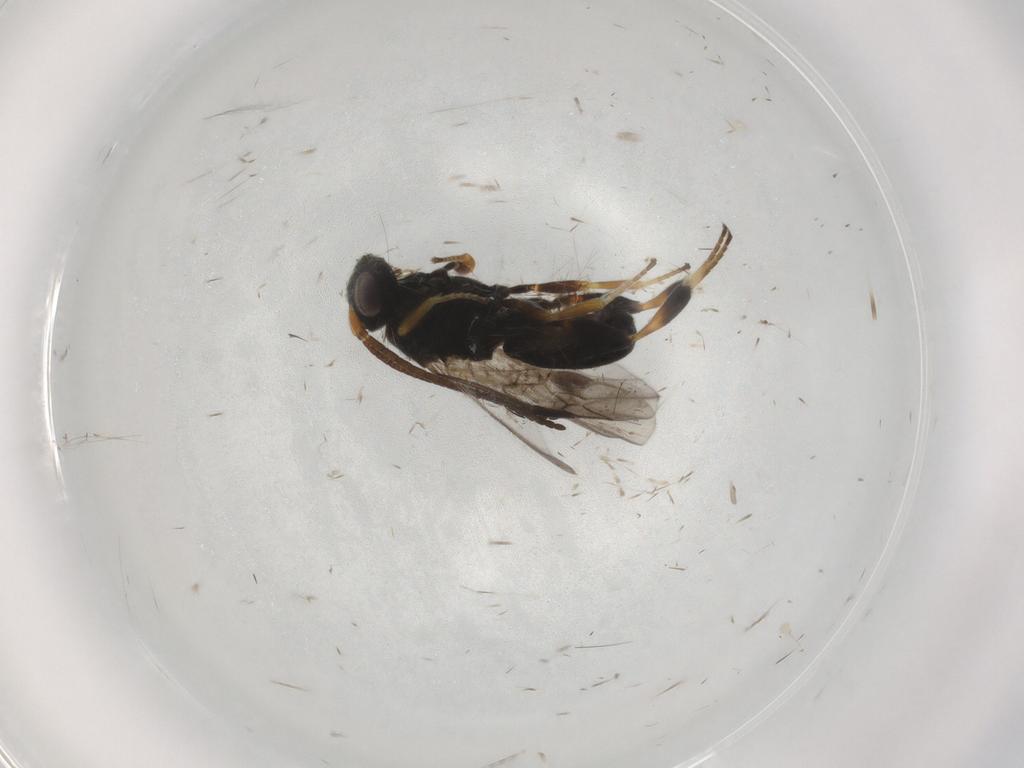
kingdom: Animalia
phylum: Arthropoda
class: Insecta
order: Hymenoptera
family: Braconidae
